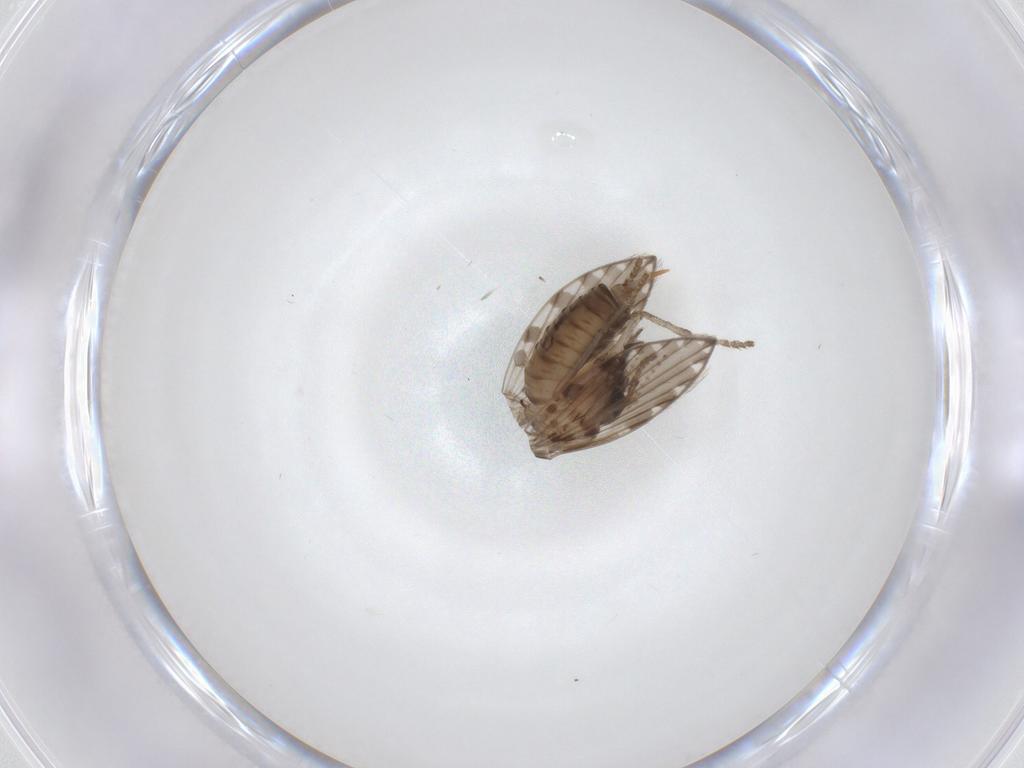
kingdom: Animalia
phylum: Arthropoda
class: Insecta
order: Diptera
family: Psychodidae
